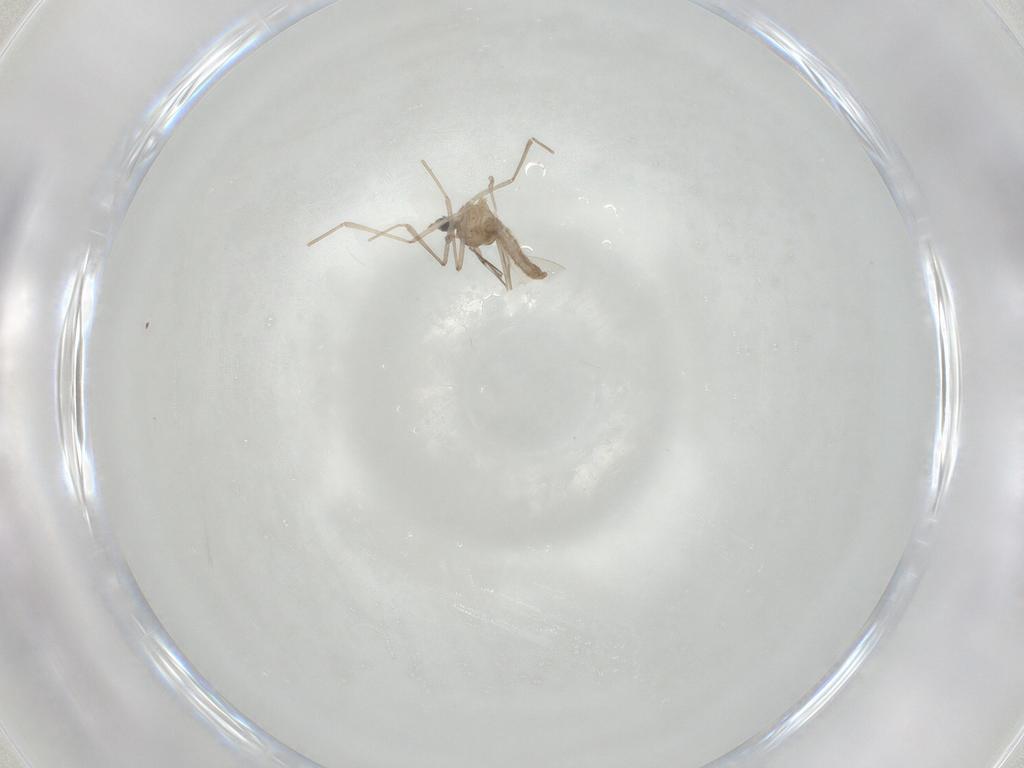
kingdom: Animalia
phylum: Arthropoda
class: Insecta
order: Diptera
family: Cecidomyiidae
